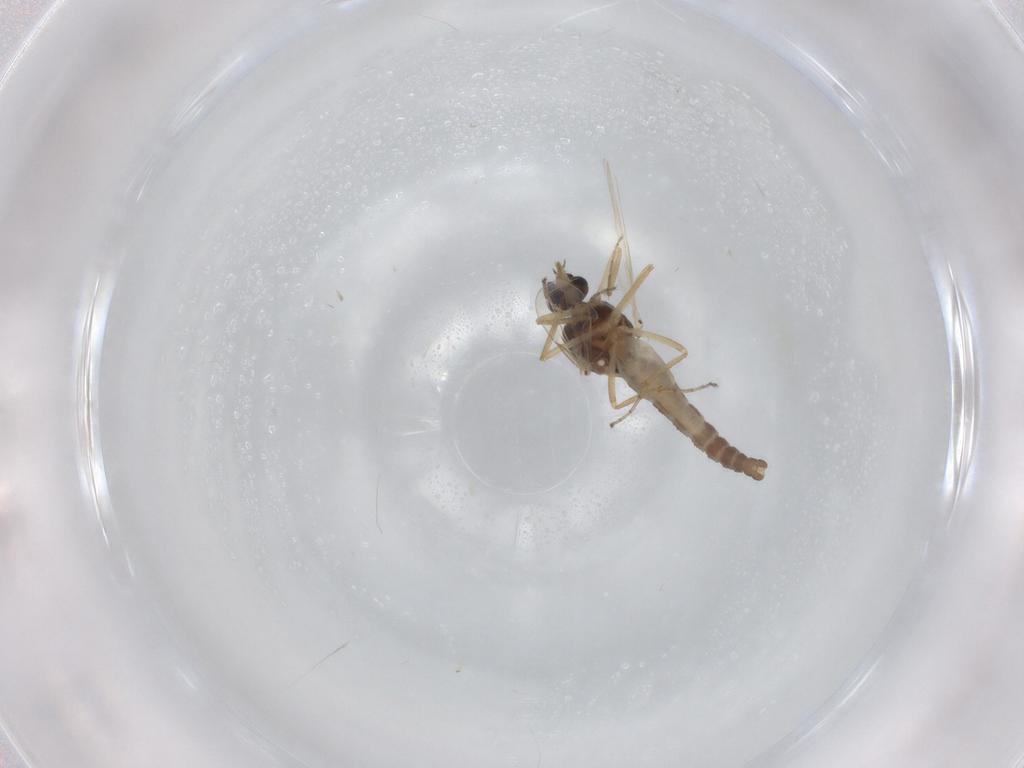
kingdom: Animalia
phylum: Arthropoda
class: Insecta
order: Diptera
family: Ceratopogonidae
